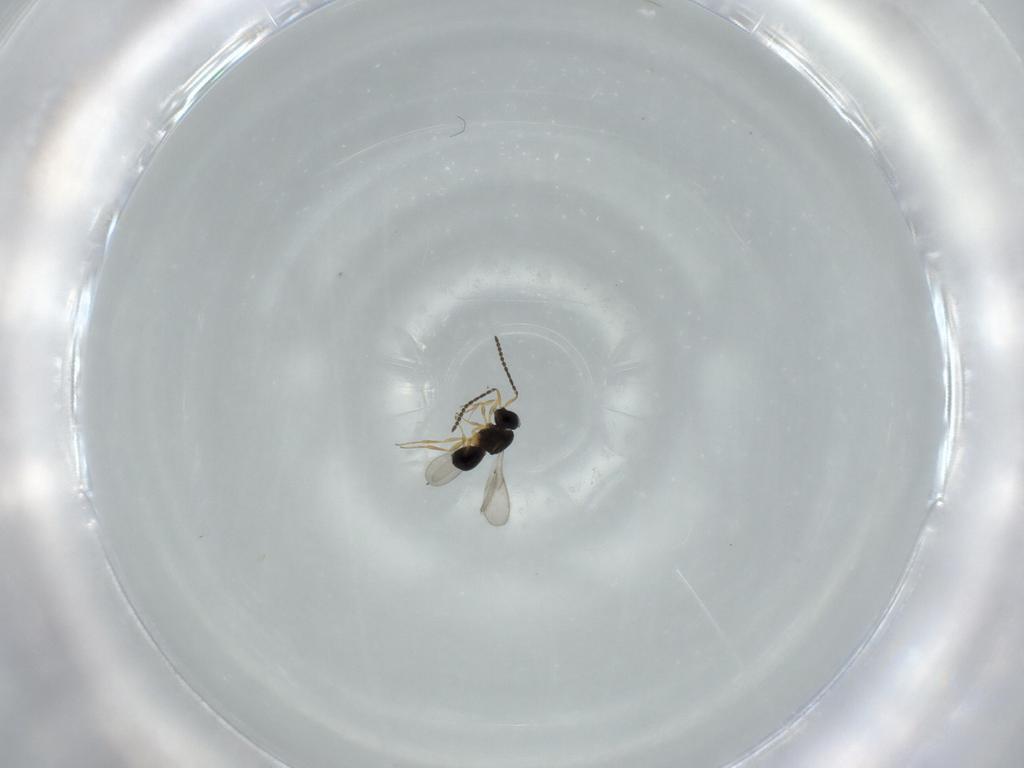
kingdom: Animalia
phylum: Arthropoda
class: Insecta
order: Hymenoptera
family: Scelionidae
